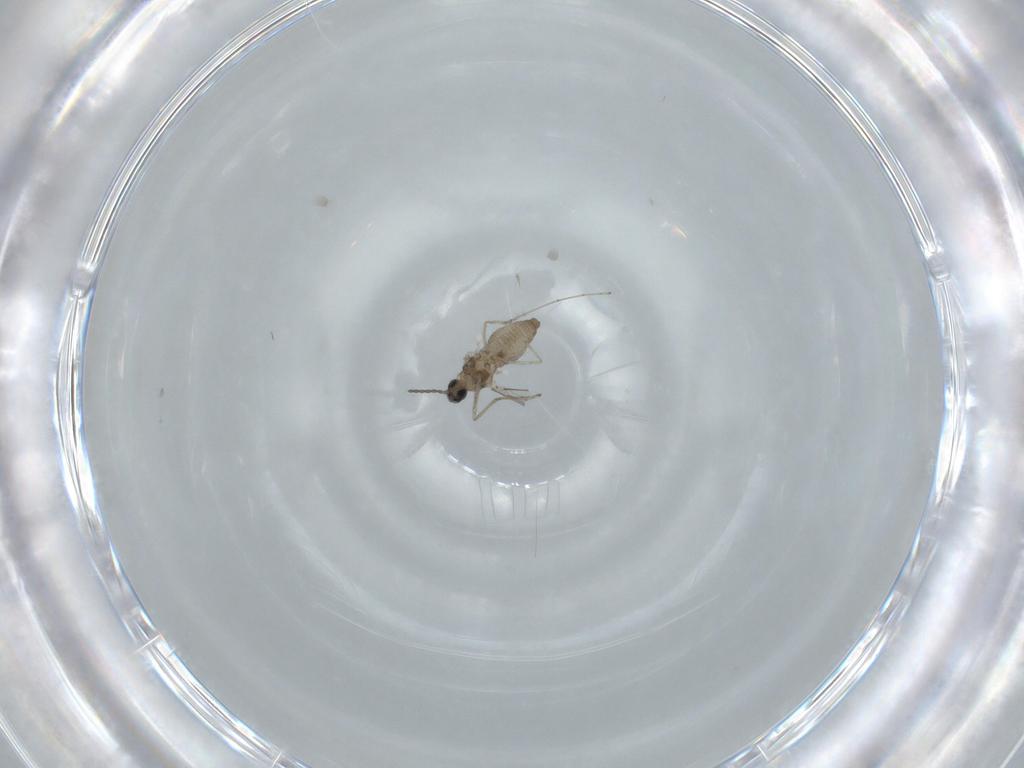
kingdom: Animalia
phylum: Arthropoda
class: Insecta
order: Diptera
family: Cecidomyiidae
